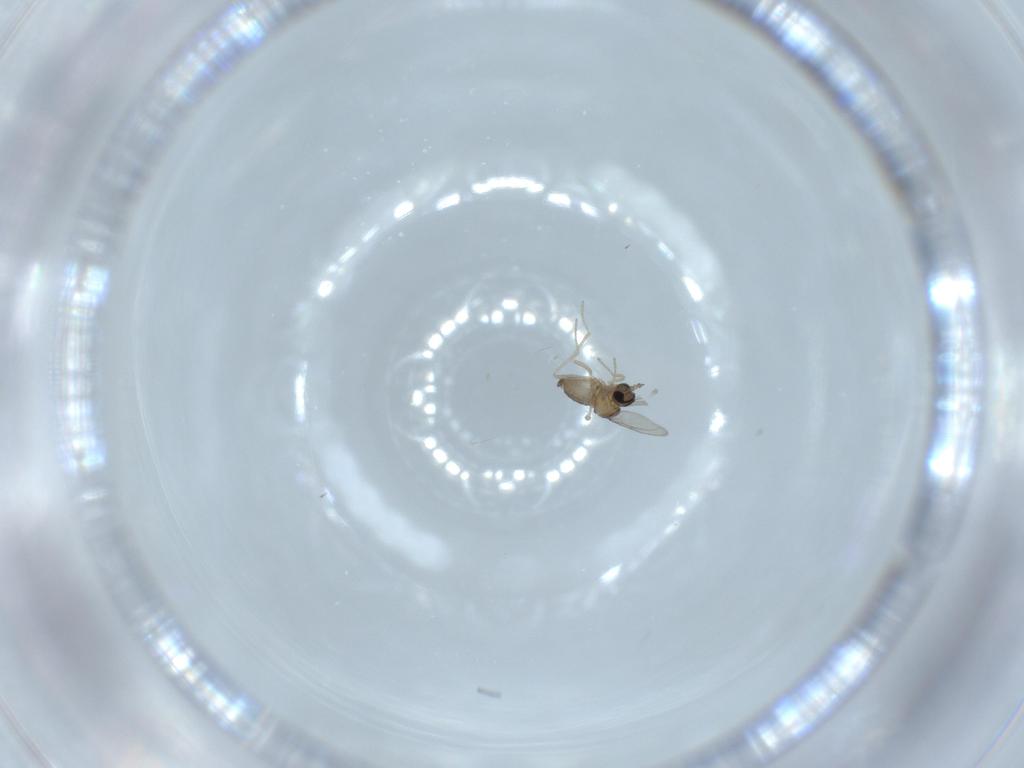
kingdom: Animalia
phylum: Arthropoda
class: Insecta
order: Diptera
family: Cecidomyiidae
